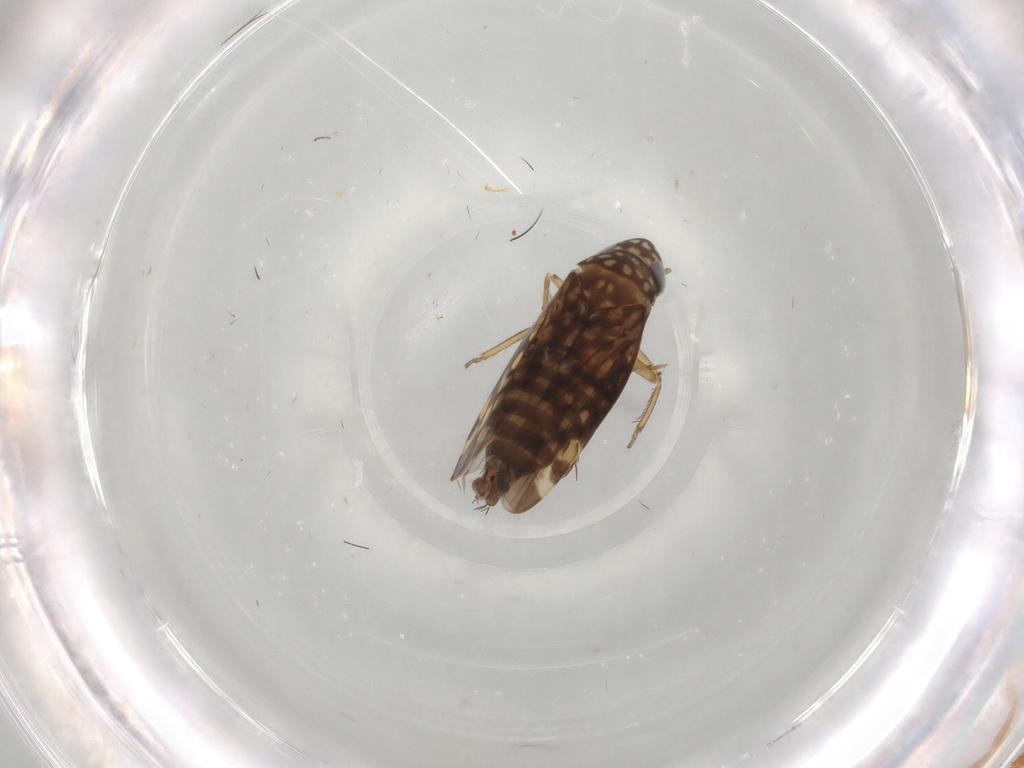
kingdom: Animalia
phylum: Arthropoda
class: Insecta
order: Hemiptera
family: Cicadellidae
